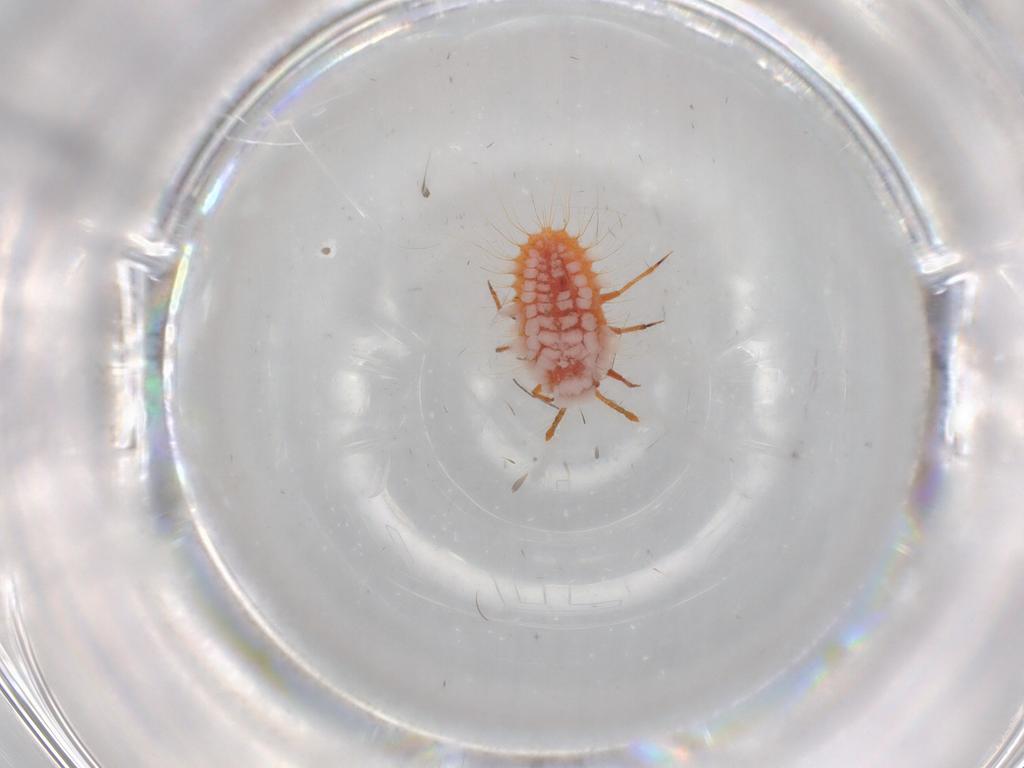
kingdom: Animalia
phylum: Arthropoda
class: Insecta
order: Hemiptera
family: Coccoidea_incertae_sedis
